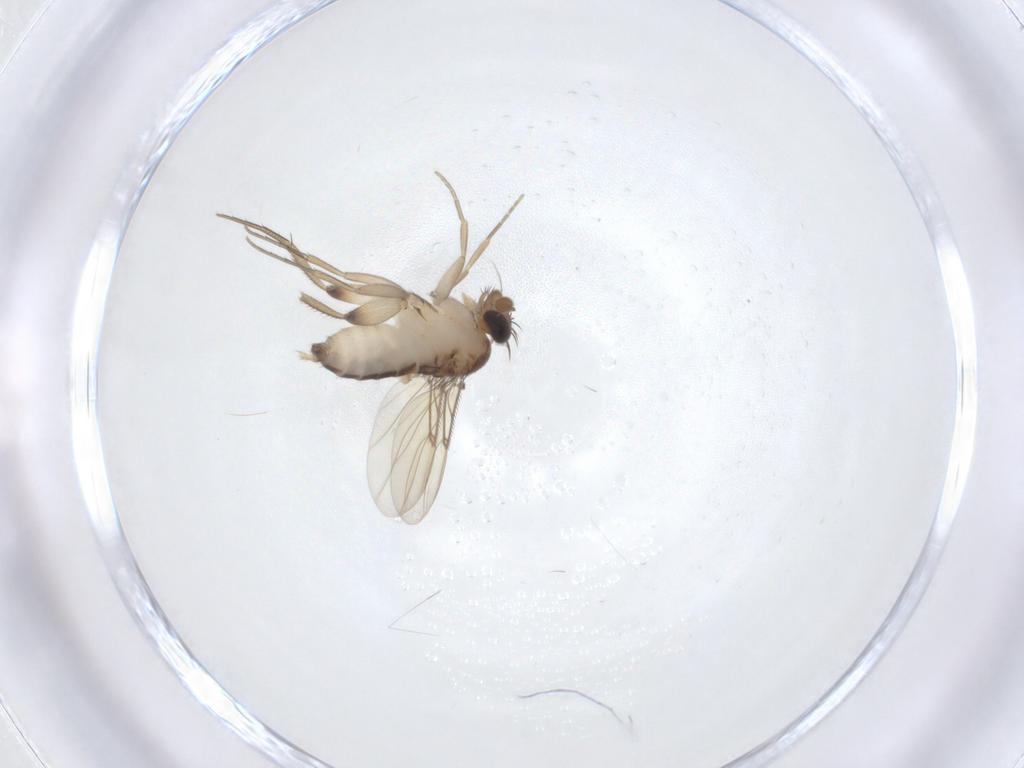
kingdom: Animalia
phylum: Arthropoda
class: Insecta
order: Diptera
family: Phoridae
